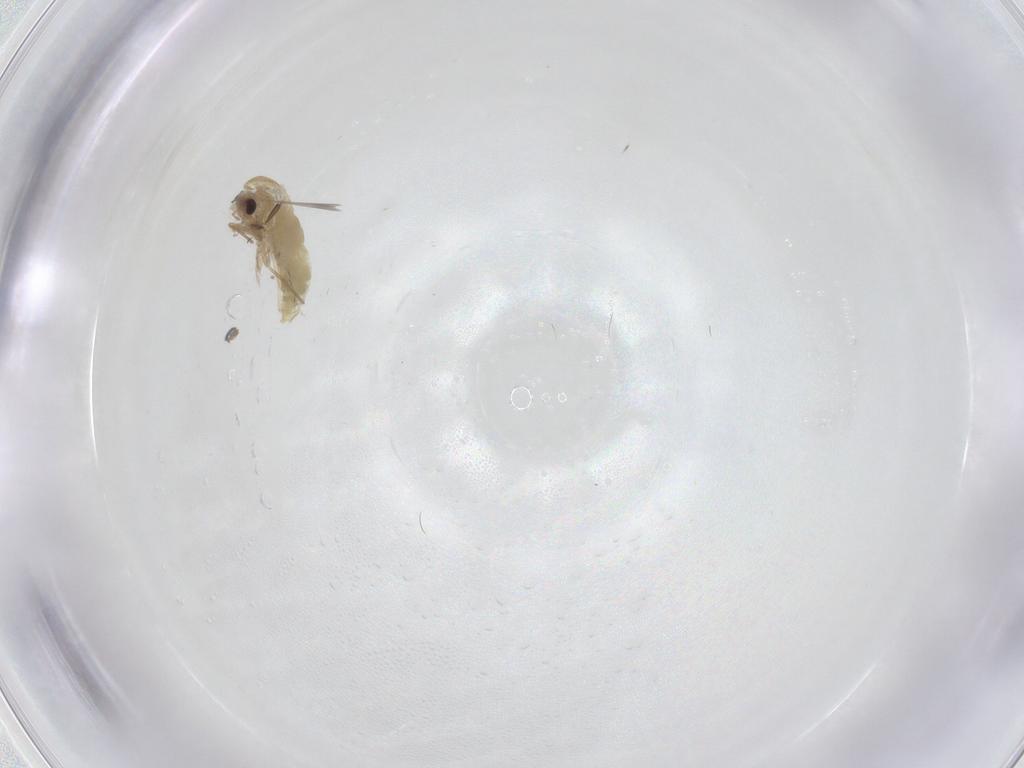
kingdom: Animalia
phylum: Arthropoda
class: Insecta
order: Diptera
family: Chironomidae
